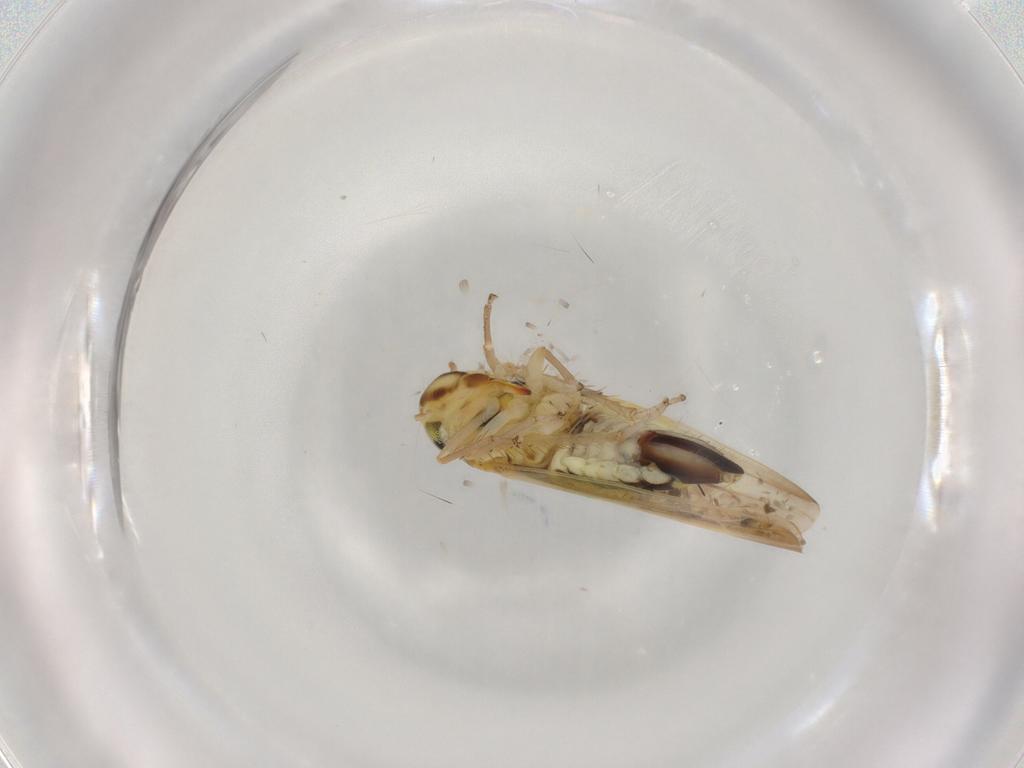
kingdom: Animalia
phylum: Arthropoda
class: Insecta
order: Hemiptera
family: Cicadellidae
